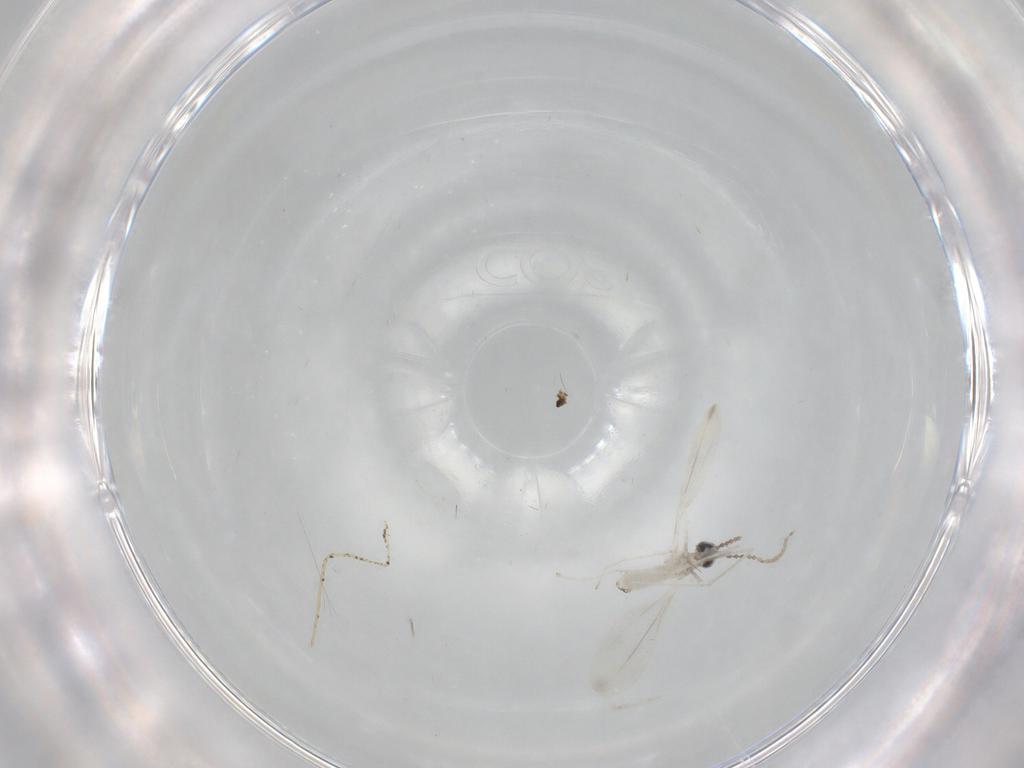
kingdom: Animalia
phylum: Arthropoda
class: Insecta
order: Diptera
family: Cecidomyiidae
